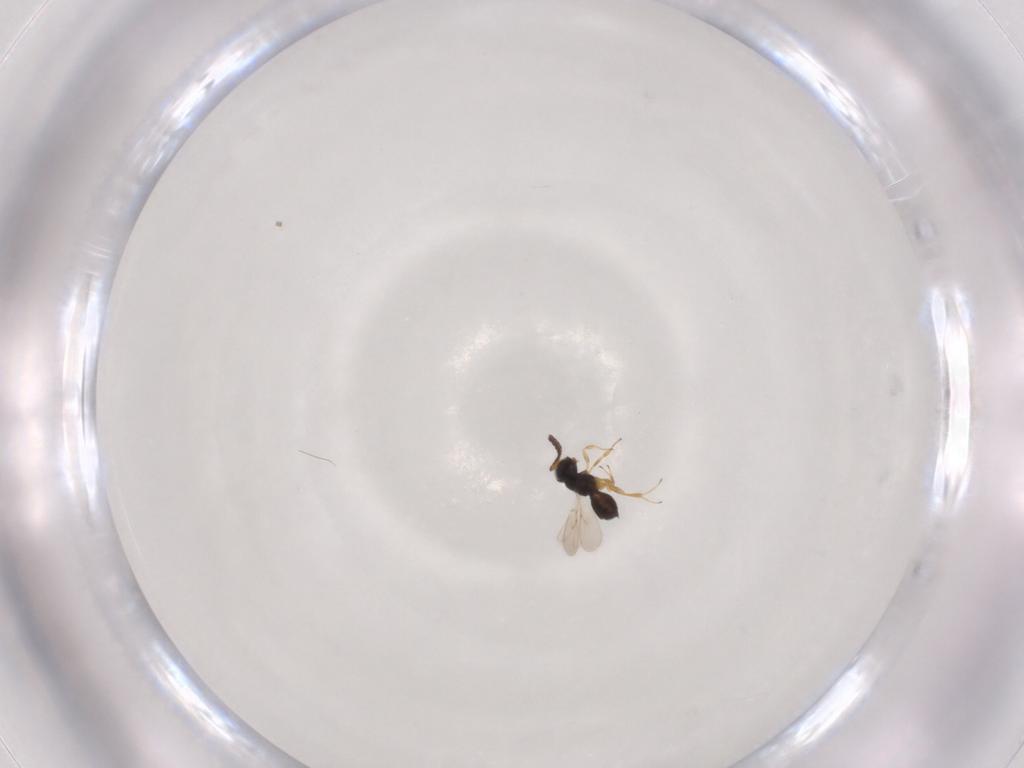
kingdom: Animalia
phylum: Arthropoda
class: Insecta
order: Hymenoptera
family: Scelionidae
